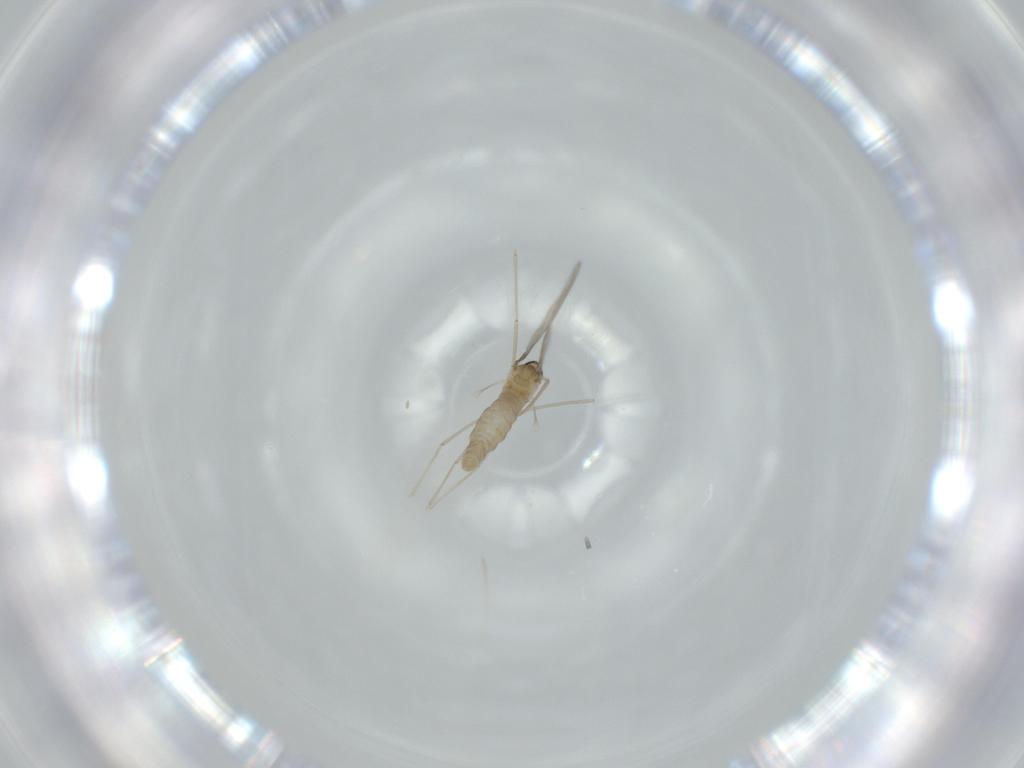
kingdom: Animalia
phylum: Arthropoda
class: Insecta
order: Diptera
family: Cecidomyiidae
